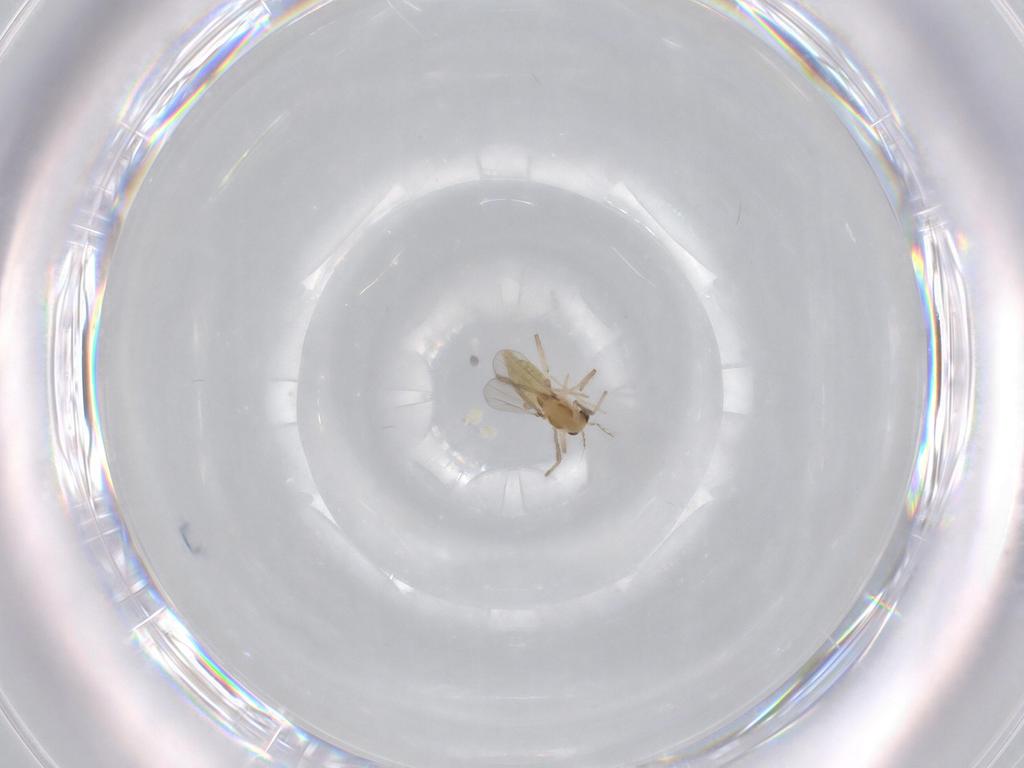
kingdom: Animalia
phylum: Arthropoda
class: Insecta
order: Diptera
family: Chironomidae
